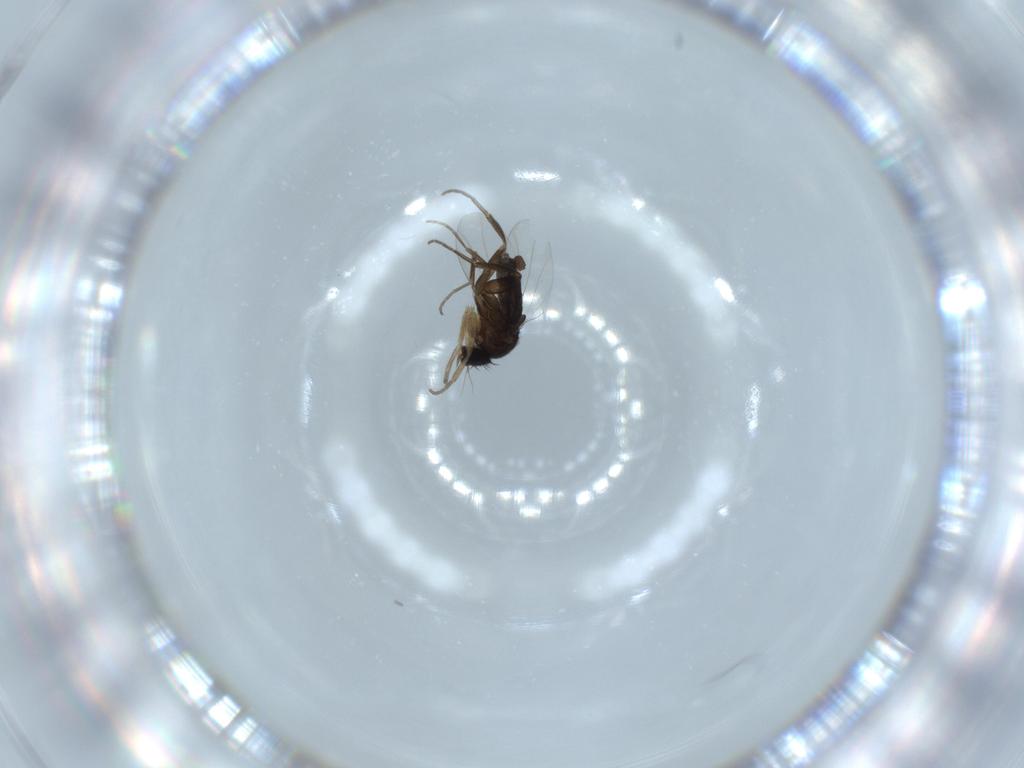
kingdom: Animalia
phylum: Arthropoda
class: Insecta
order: Diptera
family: Phoridae
